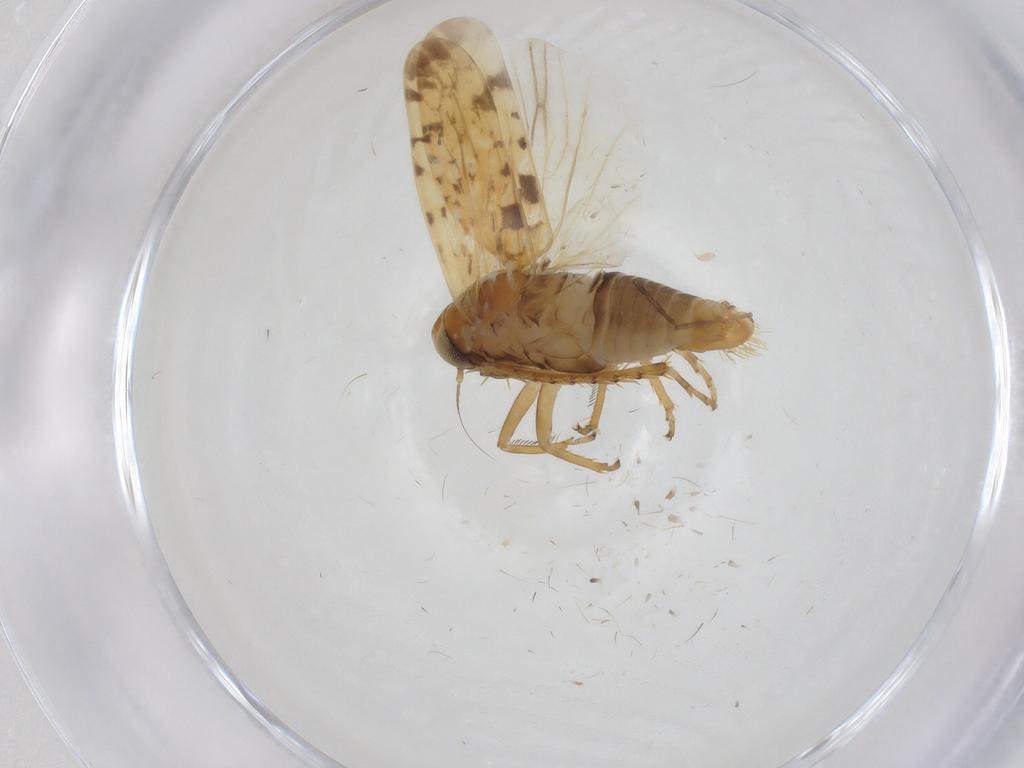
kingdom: Animalia
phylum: Arthropoda
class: Insecta
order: Hemiptera
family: Cicadellidae
